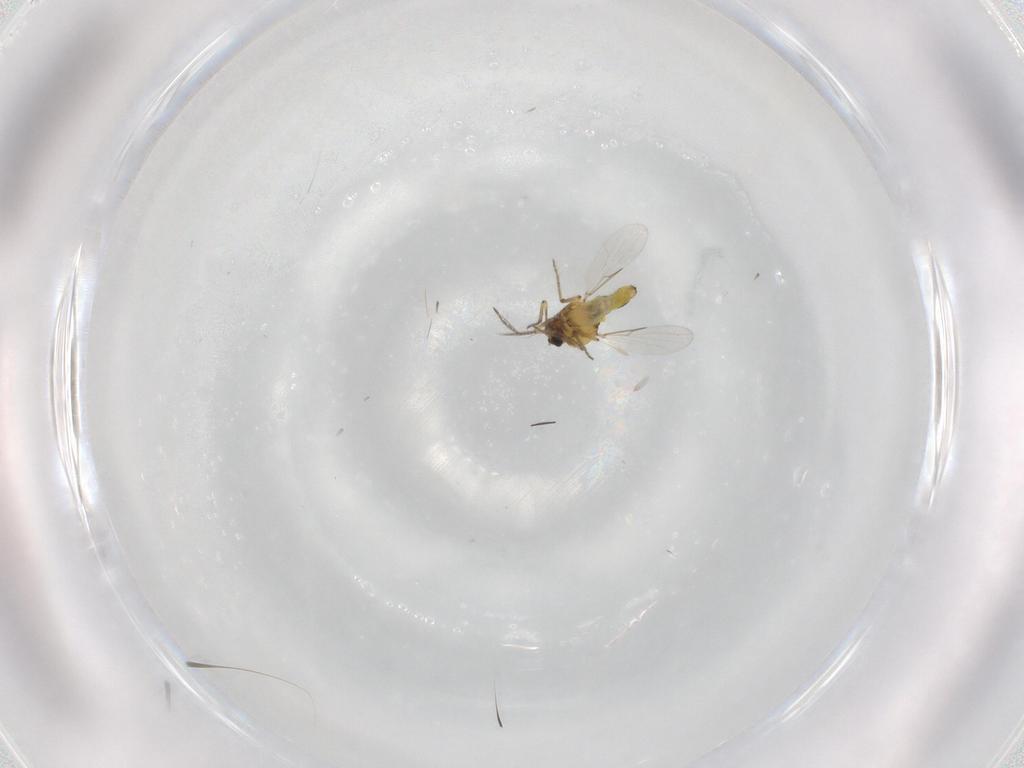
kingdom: Animalia
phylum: Arthropoda
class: Insecta
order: Diptera
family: Ceratopogonidae
